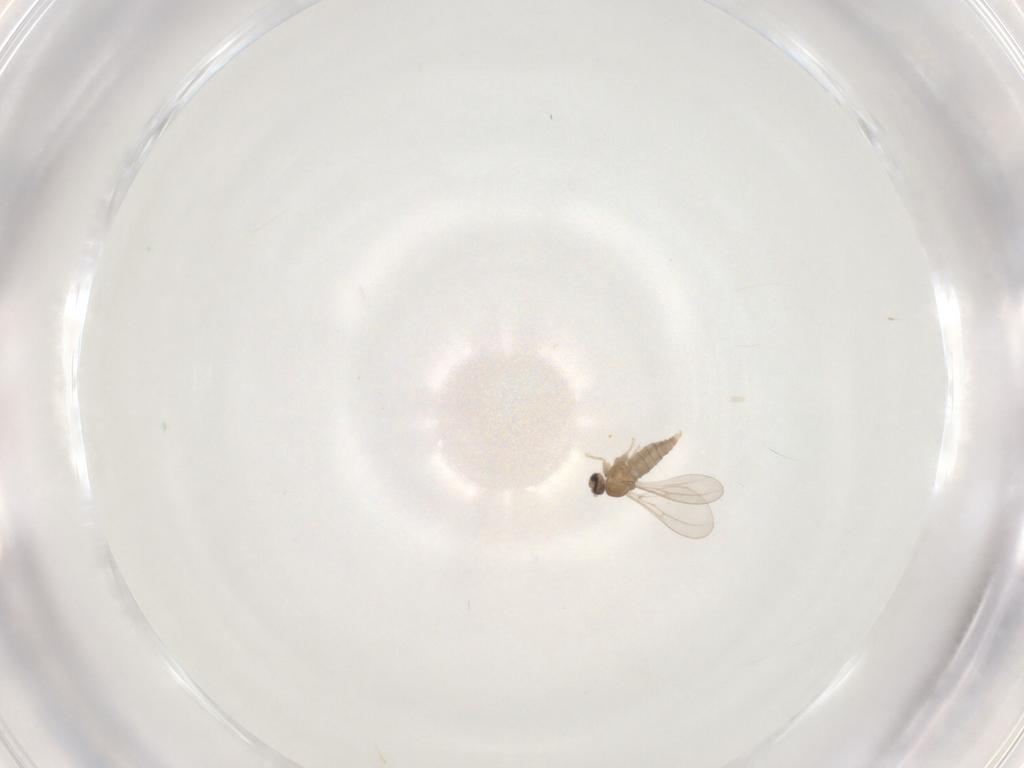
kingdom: Animalia
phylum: Arthropoda
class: Insecta
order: Diptera
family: Cecidomyiidae
